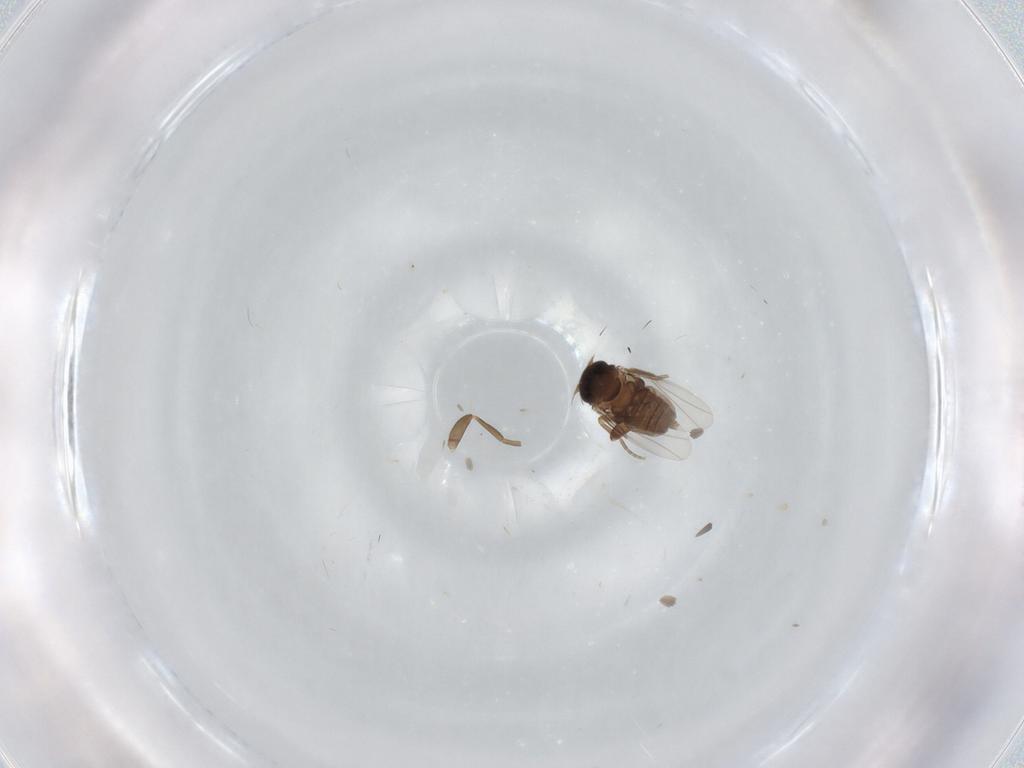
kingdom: Animalia
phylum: Arthropoda
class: Insecta
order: Diptera
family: Phoridae
